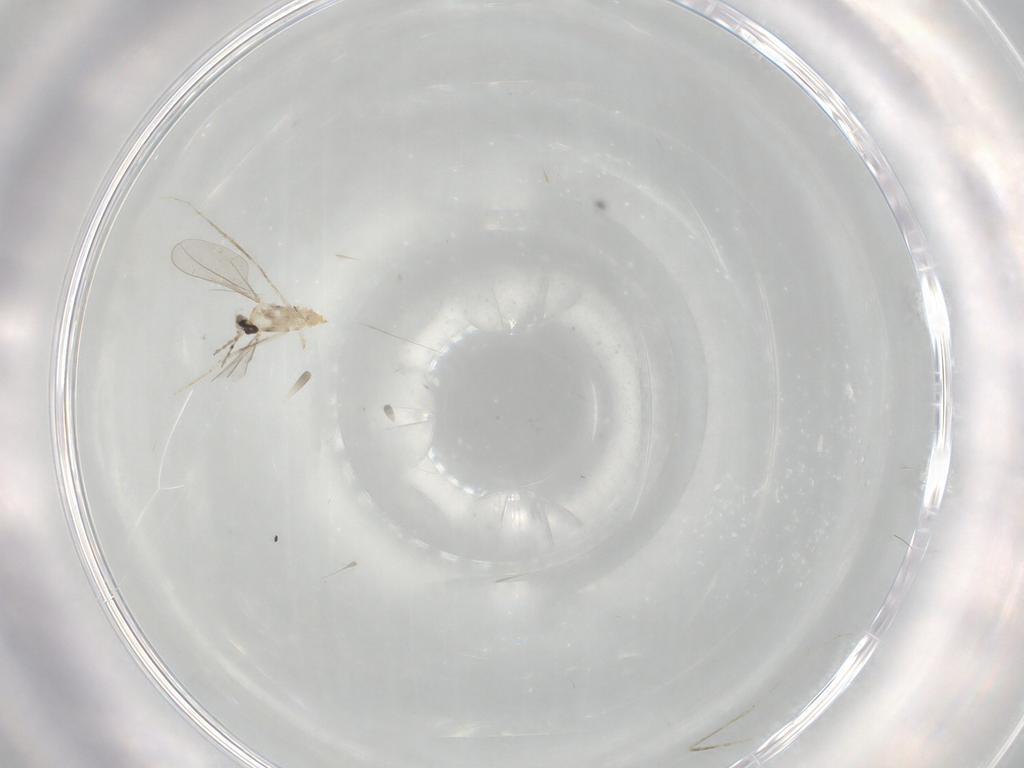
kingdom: Animalia
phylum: Arthropoda
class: Insecta
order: Diptera
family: Cecidomyiidae
